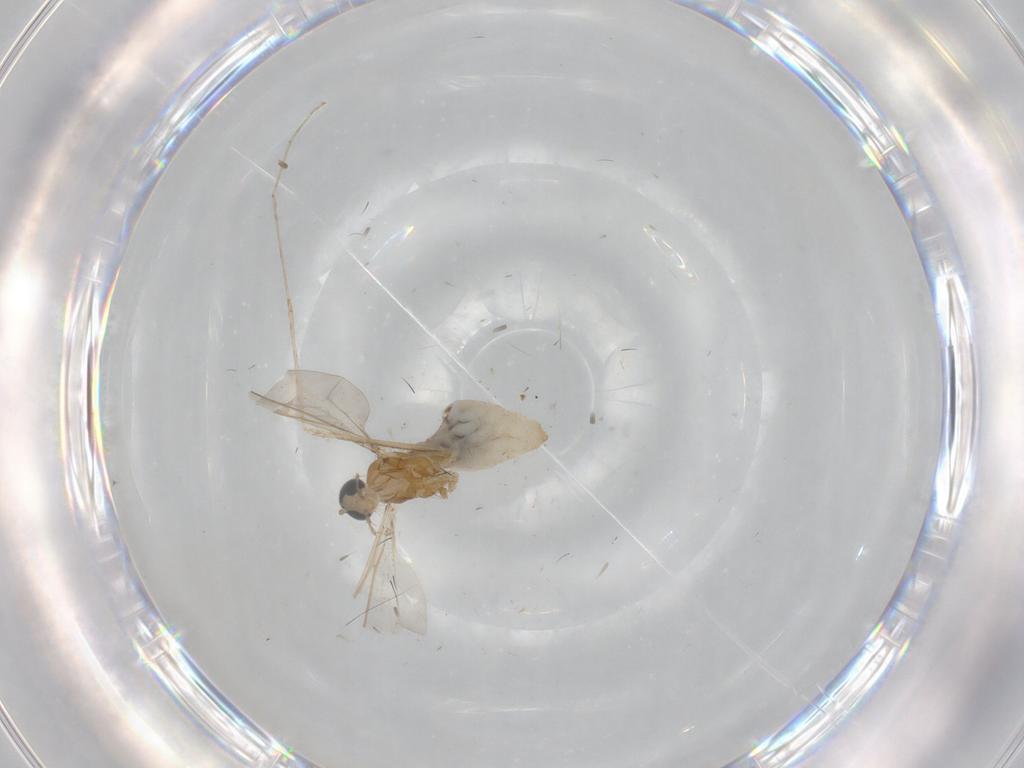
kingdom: Animalia
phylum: Arthropoda
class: Insecta
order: Diptera
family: Cecidomyiidae
